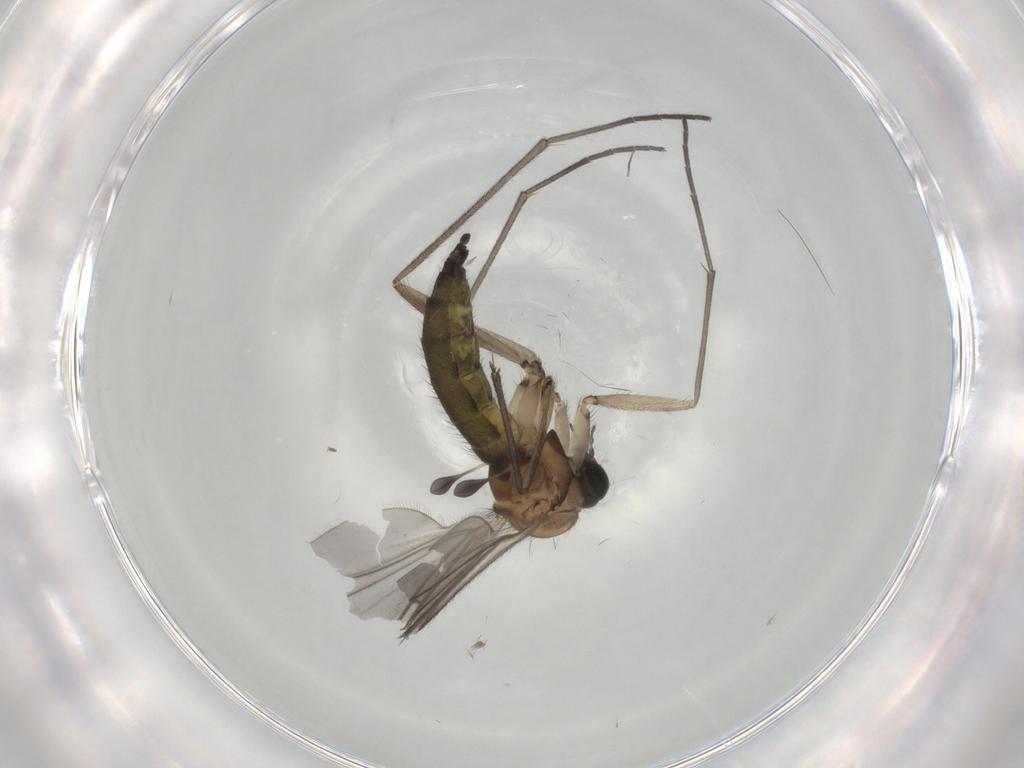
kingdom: Animalia
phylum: Arthropoda
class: Insecta
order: Diptera
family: Sciaridae
